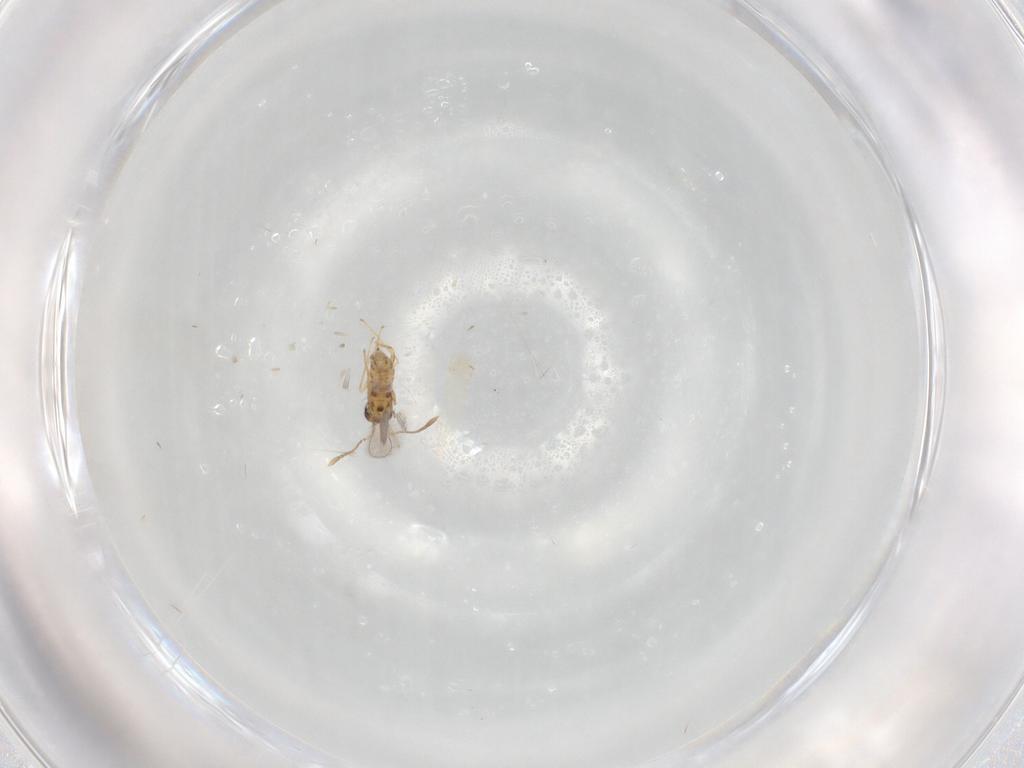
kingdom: Animalia
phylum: Arthropoda
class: Insecta
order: Hymenoptera
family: Mymaridae
